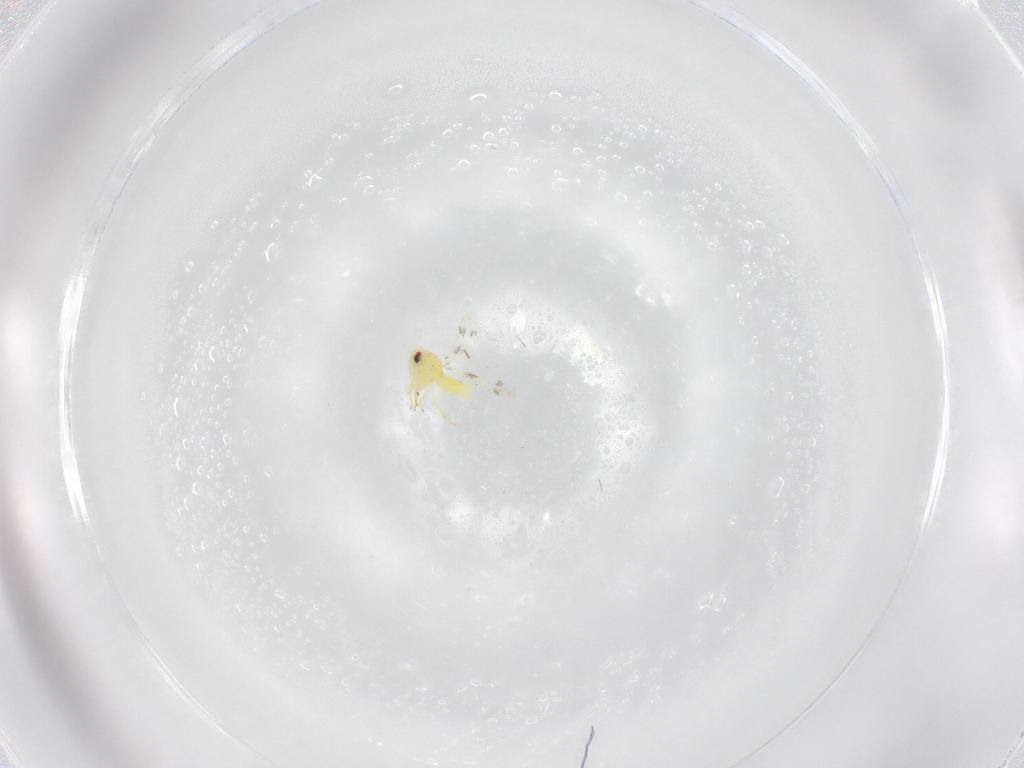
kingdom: Animalia
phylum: Arthropoda
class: Insecta
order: Hemiptera
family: Aleyrodidae
